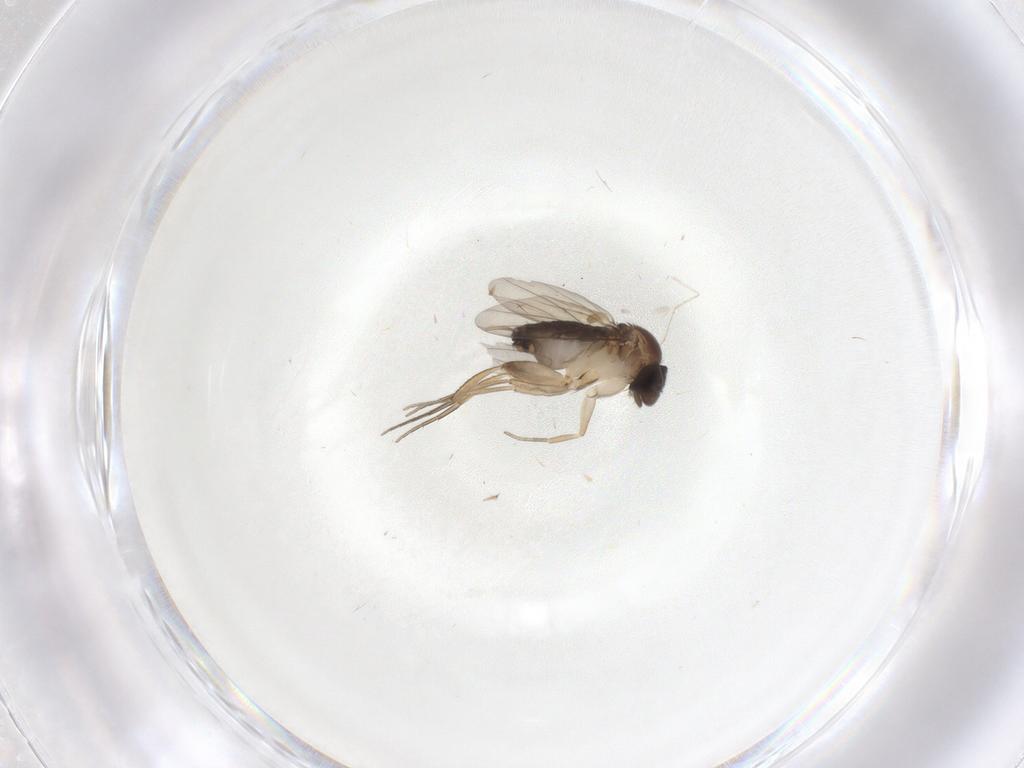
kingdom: Animalia
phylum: Arthropoda
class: Insecta
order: Diptera
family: Phoridae
